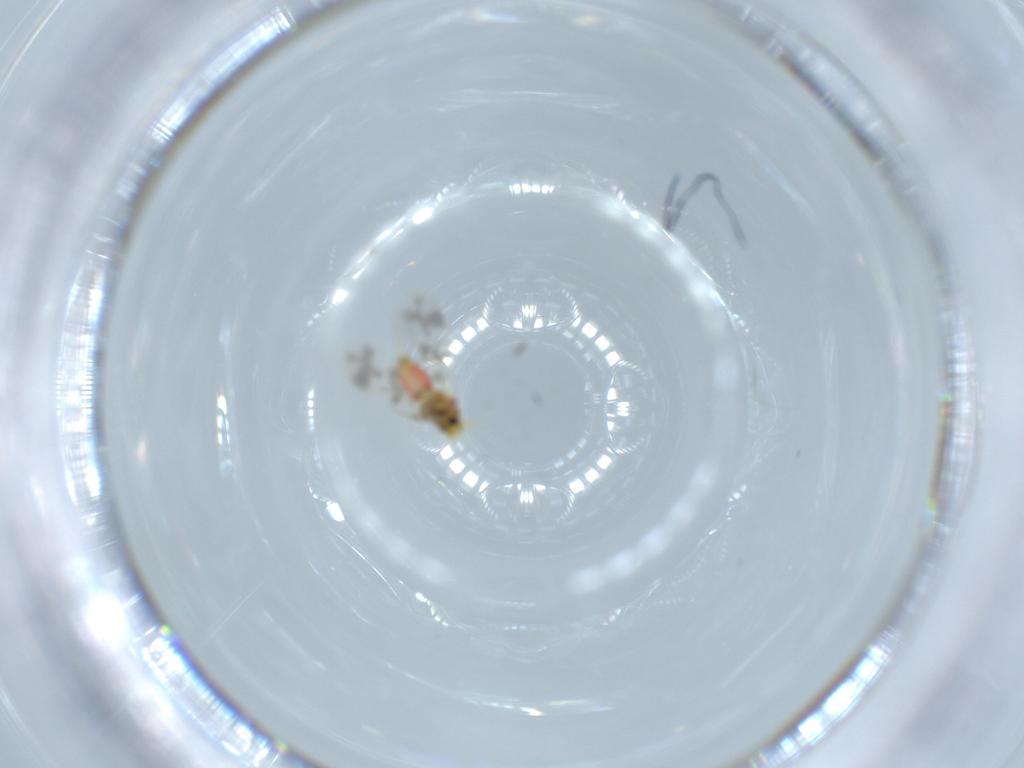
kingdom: Animalia
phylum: Arthropoda
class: Insecta
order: Hemiptera
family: Aleyrodidae
